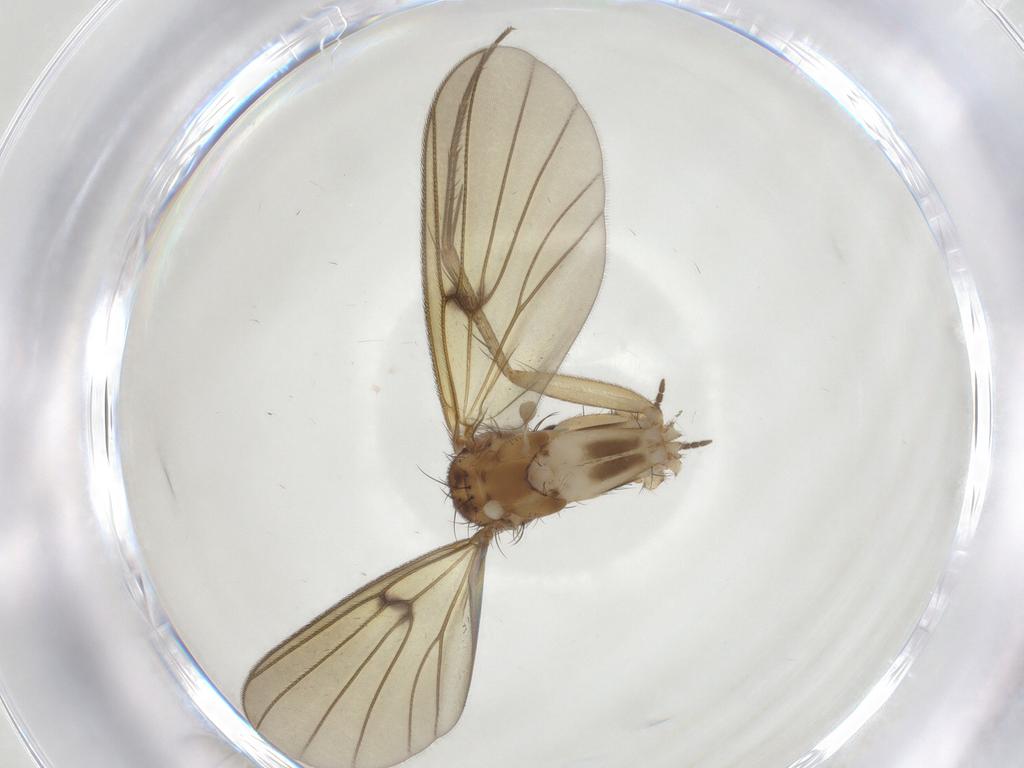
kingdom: Animalia
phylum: Arthropoda
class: Insecta
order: Diptera
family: Mycetophilidae
